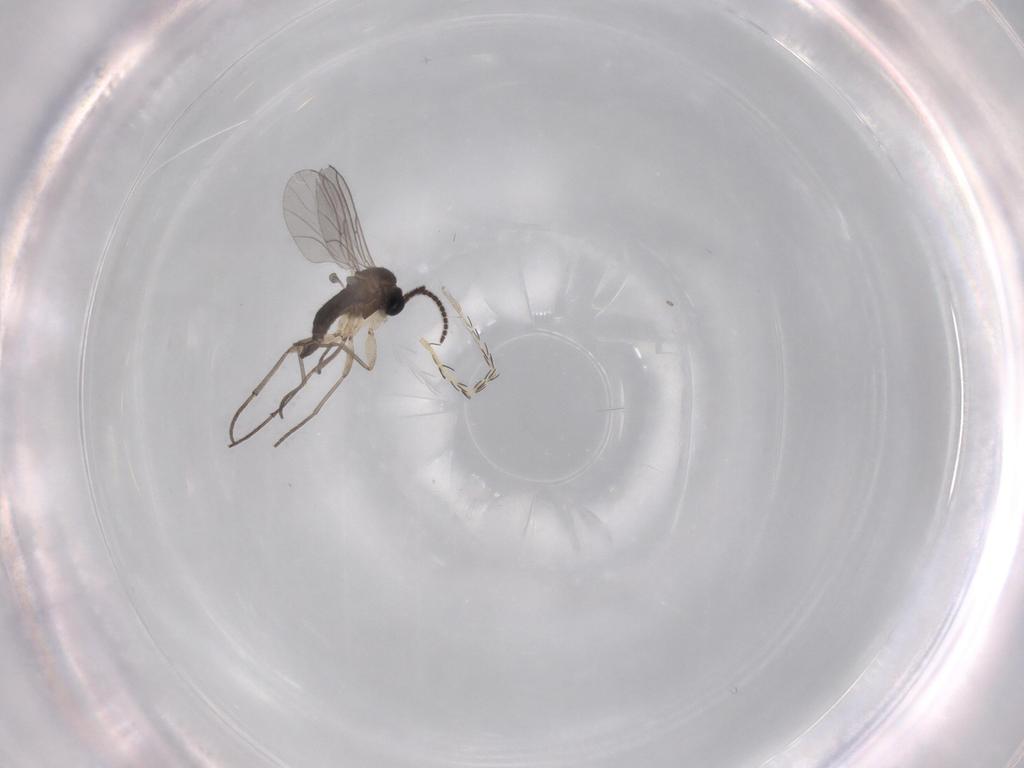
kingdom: Animalia
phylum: Arthropoda
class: Insecta
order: Diptera
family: Sciaridae
